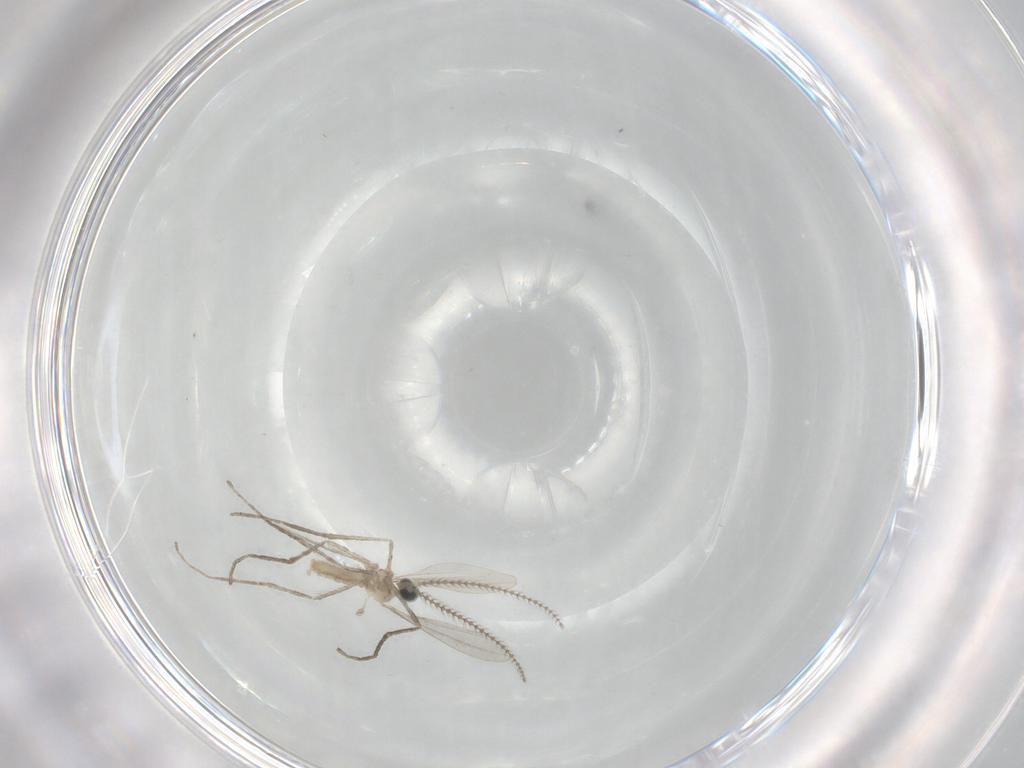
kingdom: Animalia
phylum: Arthropoda
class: Insecta
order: Diptera
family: Cecidomyiidae
